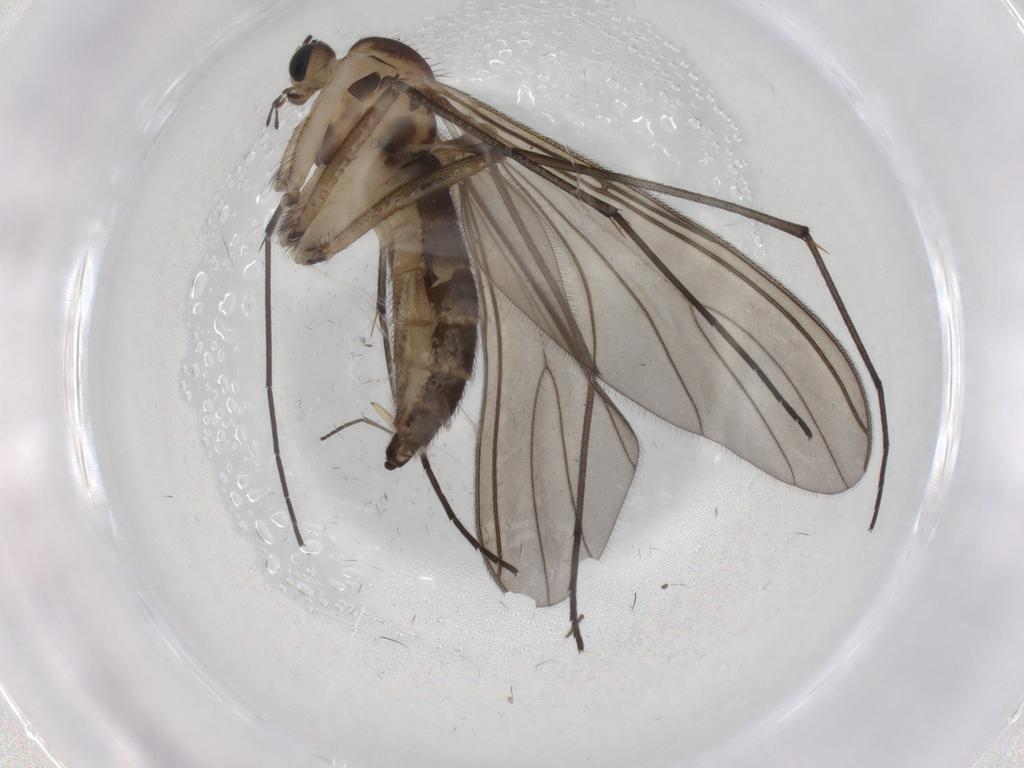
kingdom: Animalia
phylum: Arthropoda
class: Insecta
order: Diptera
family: Sciaridae
